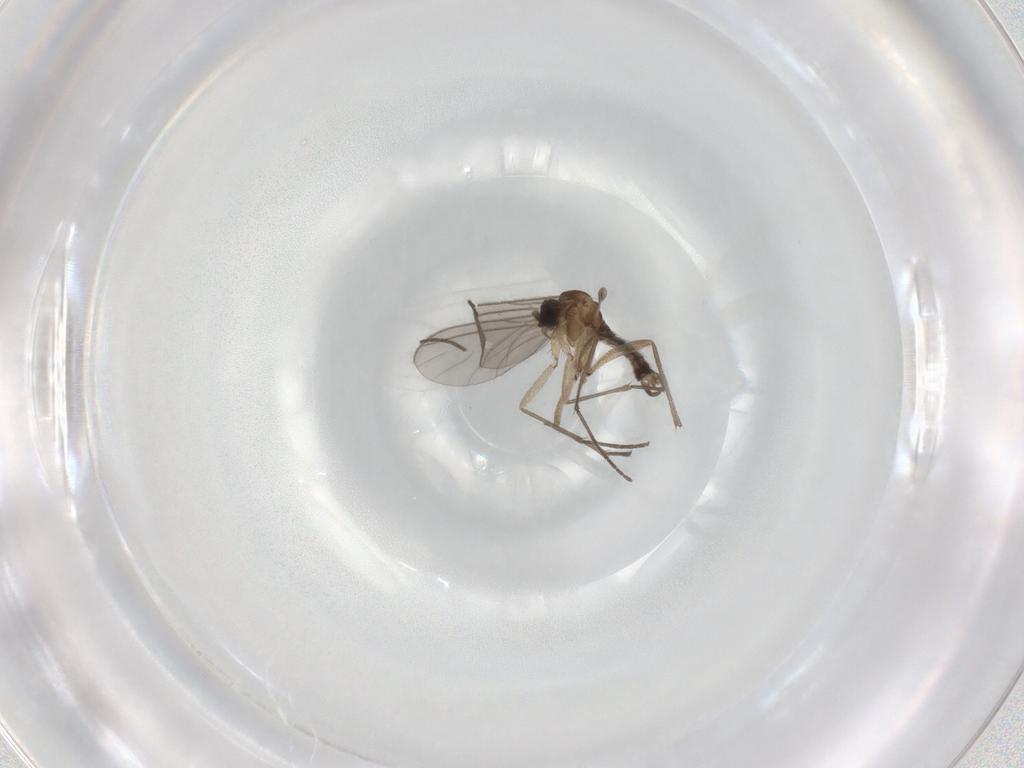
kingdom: Animalia
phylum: Arthropoda
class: Insecta
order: Diptera
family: Sciaridae
